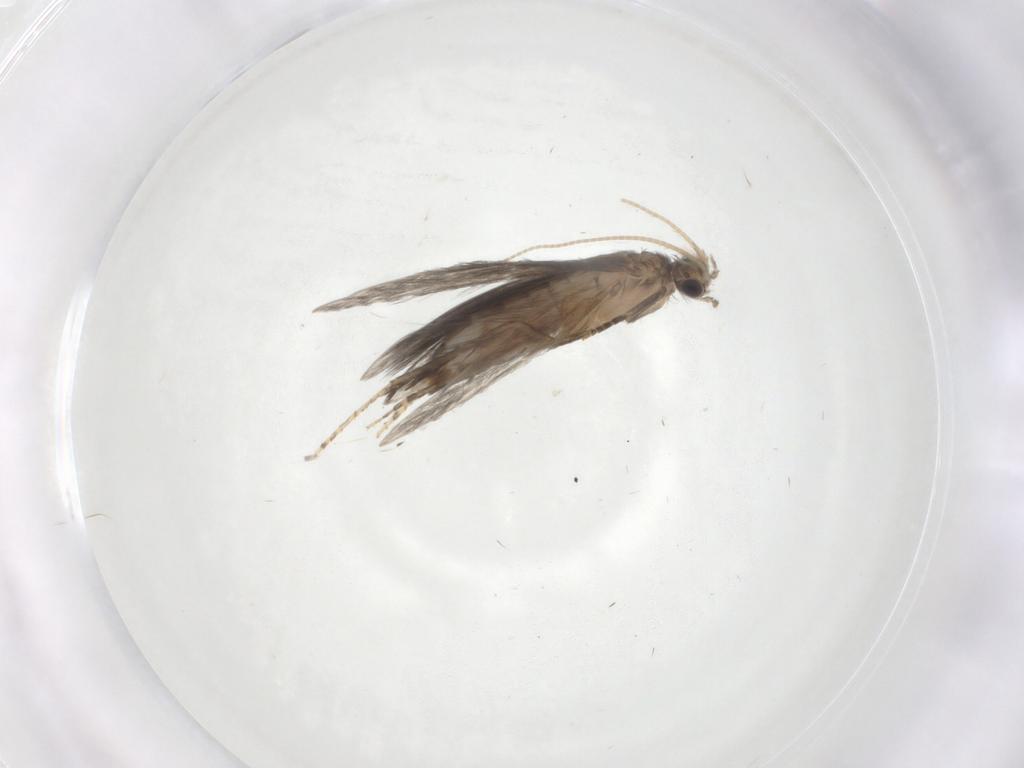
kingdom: Animalia
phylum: Arthropoda
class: Insecta
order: Trichoptera
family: Hydroptilidae
